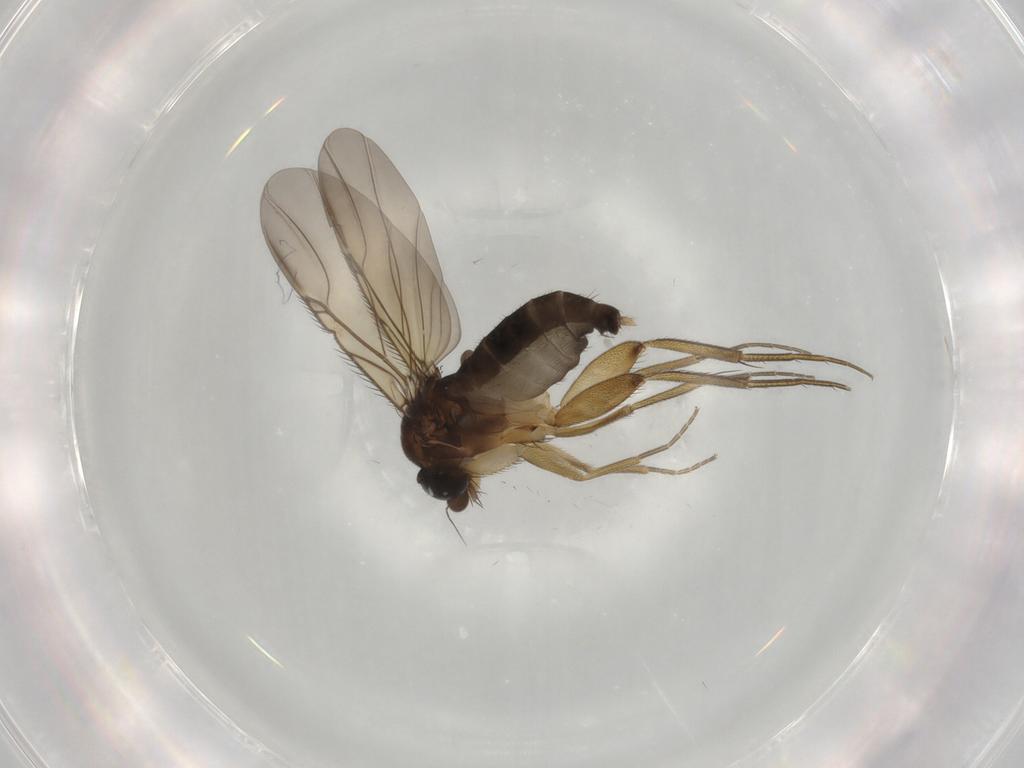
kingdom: Animalia
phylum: Arthropoda
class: Insecta
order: Diptera
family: Phoridae
